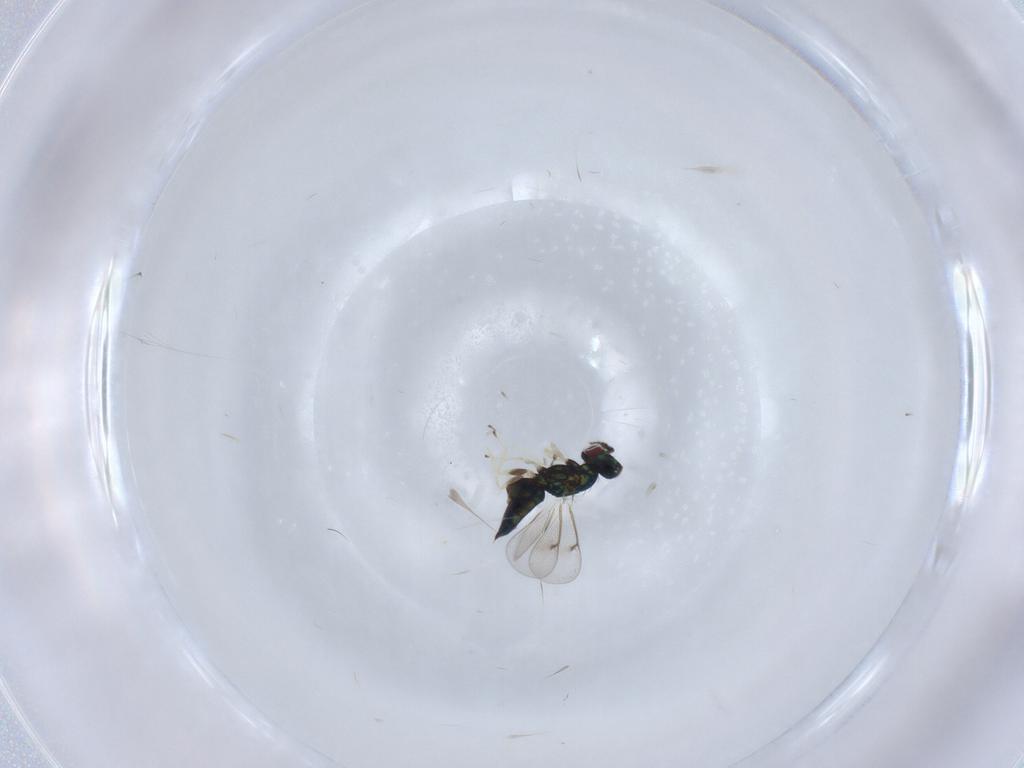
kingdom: Animalia
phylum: Arthropoda
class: Insecta
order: Hymenoptera
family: Eulophidae
